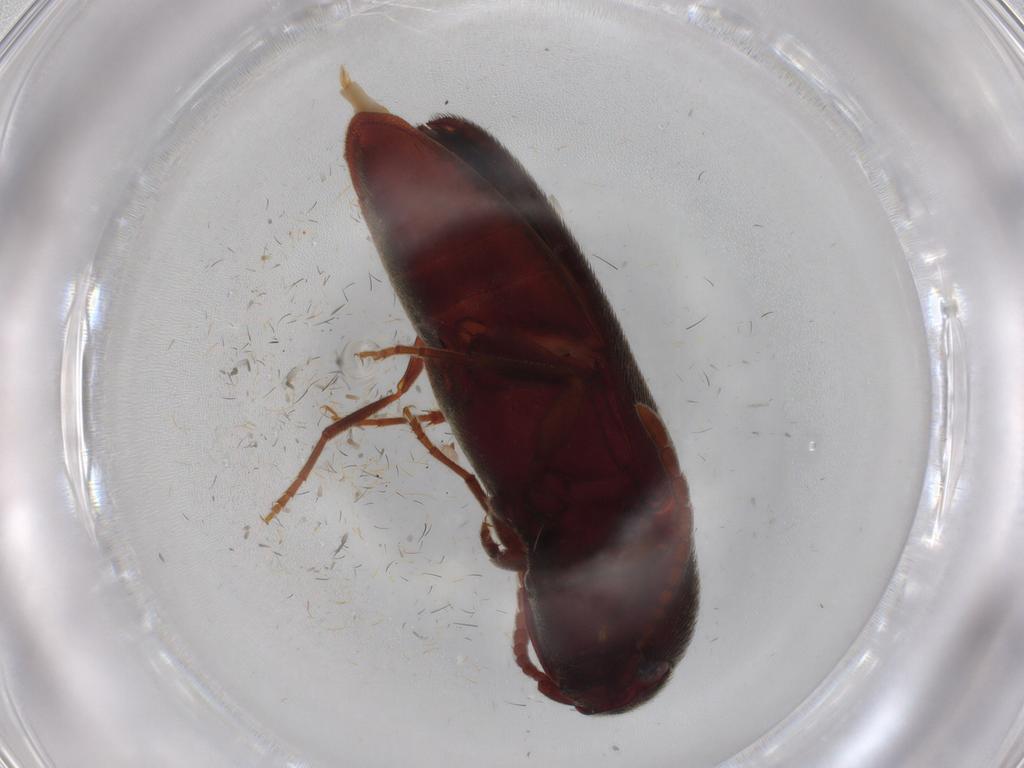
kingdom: Animalia
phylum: Arthropoda
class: Insecta
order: Coleoptera
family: Eucnemidae
